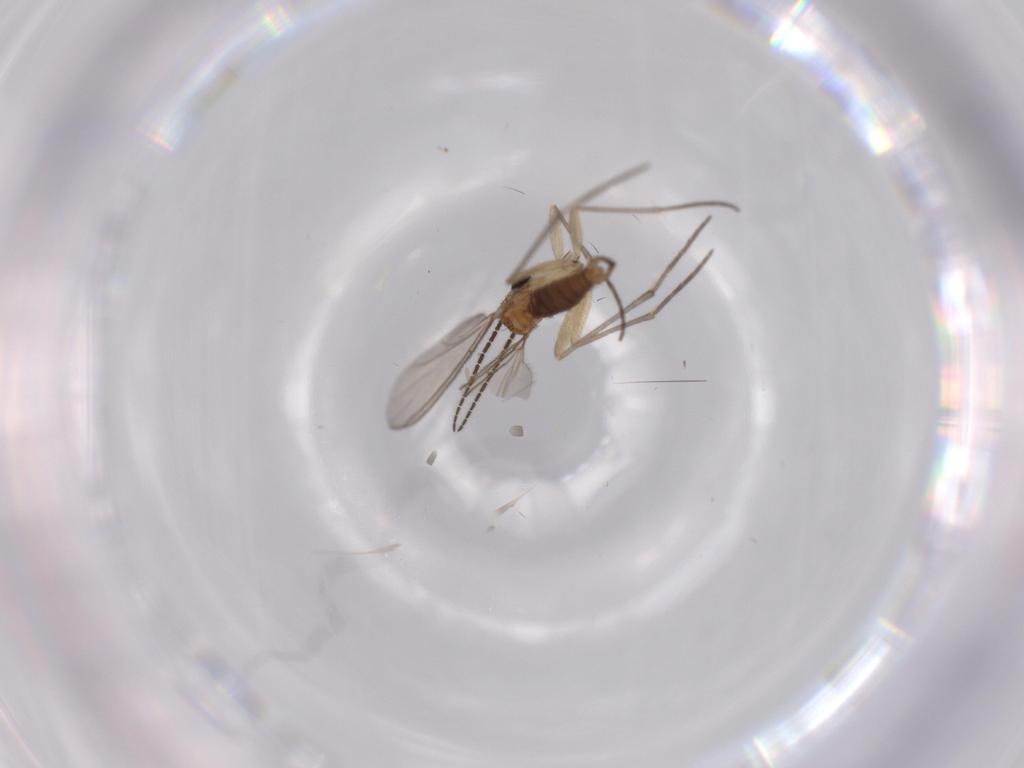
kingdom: Animalia
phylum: Arthropoda
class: Insecta
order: Diptera
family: Sciaridae
